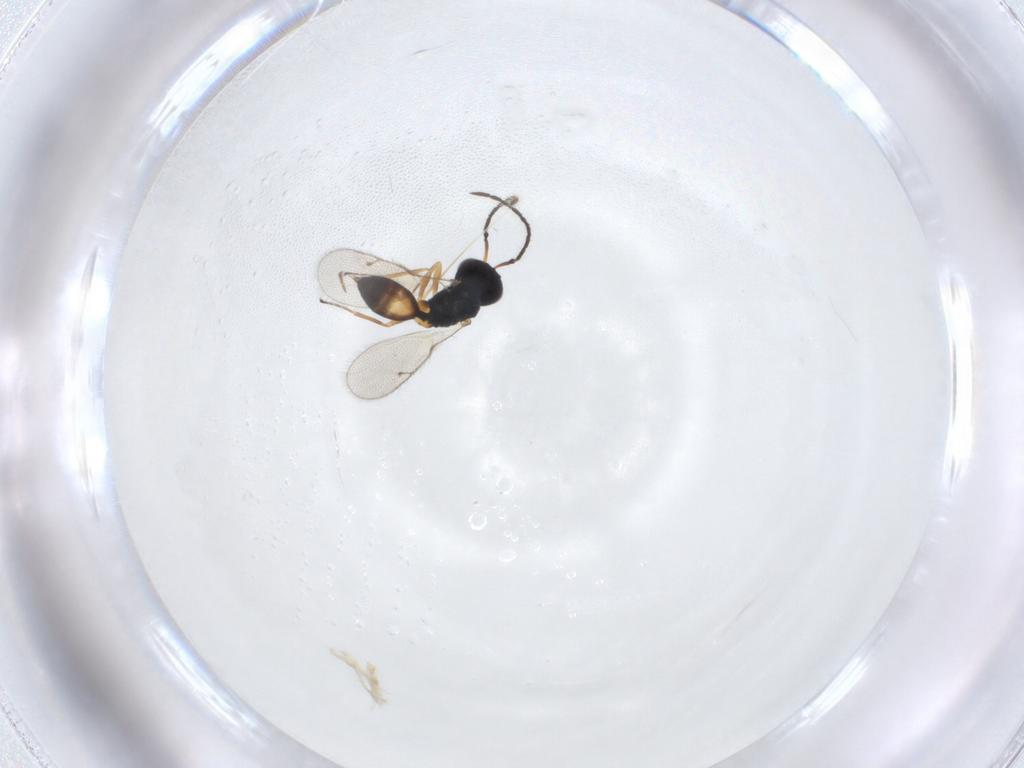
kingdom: Animalia
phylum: Arthropoda
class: Insecta
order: Hymenoptera
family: Pteromalidae
